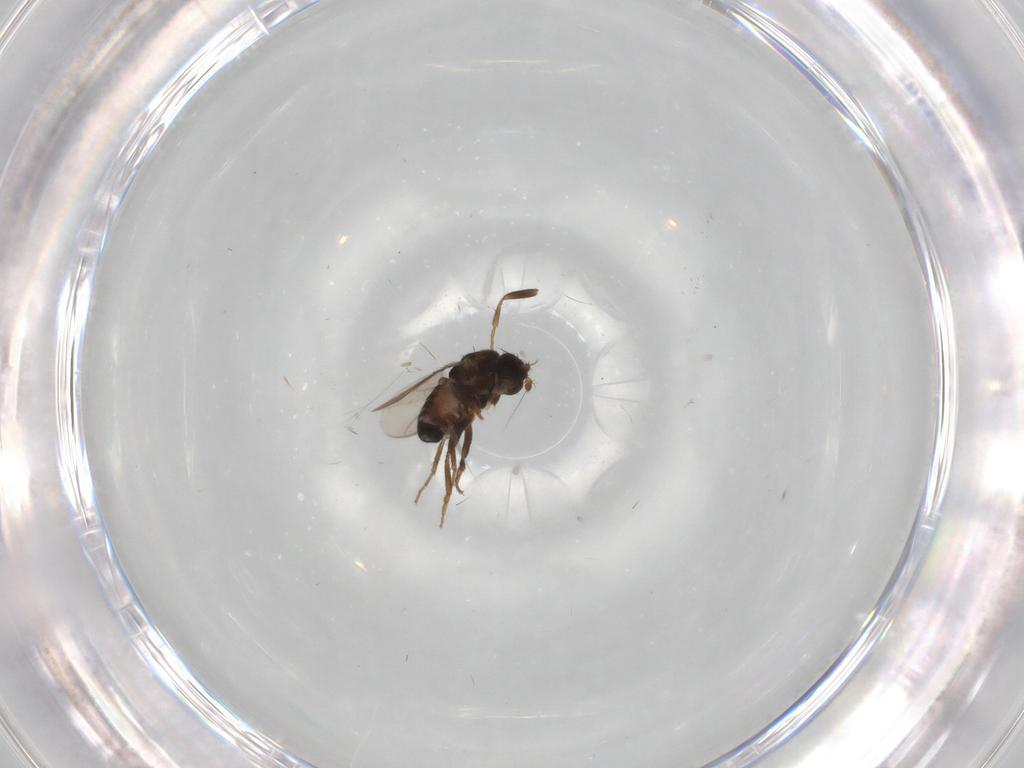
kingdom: Animalia
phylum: Arthropoda
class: Insecta
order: Diptera
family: Sphaeroceridae
